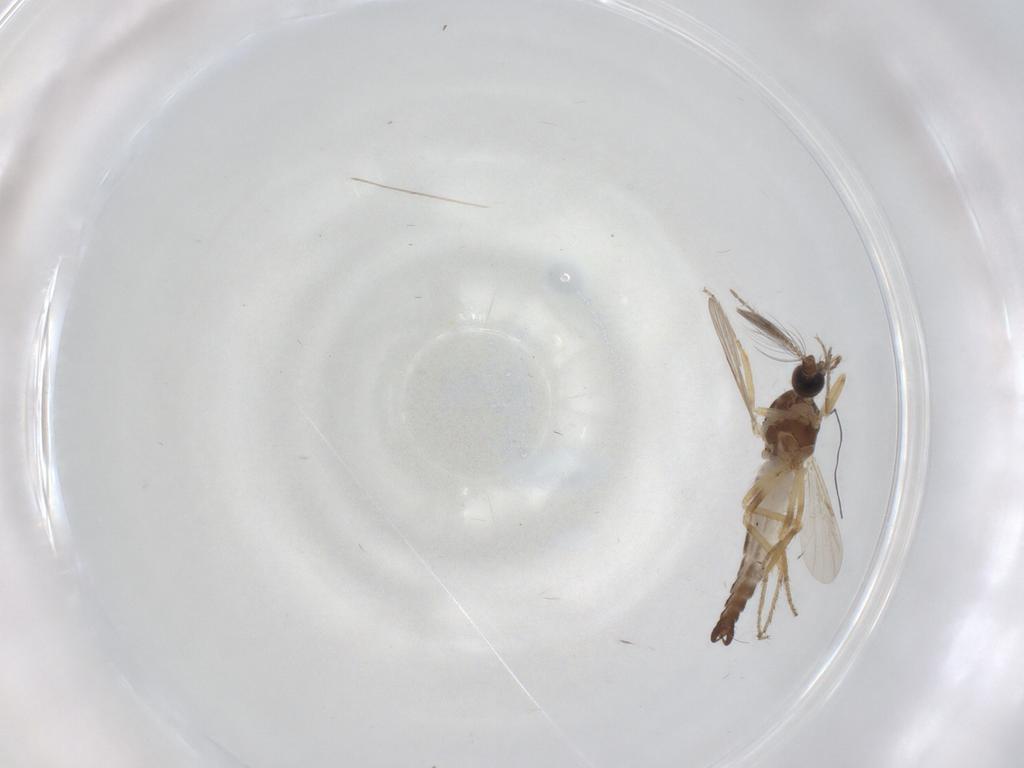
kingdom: Animalia
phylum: Arthropoda
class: Insecta
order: Diptera
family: Ceratopogonidae
